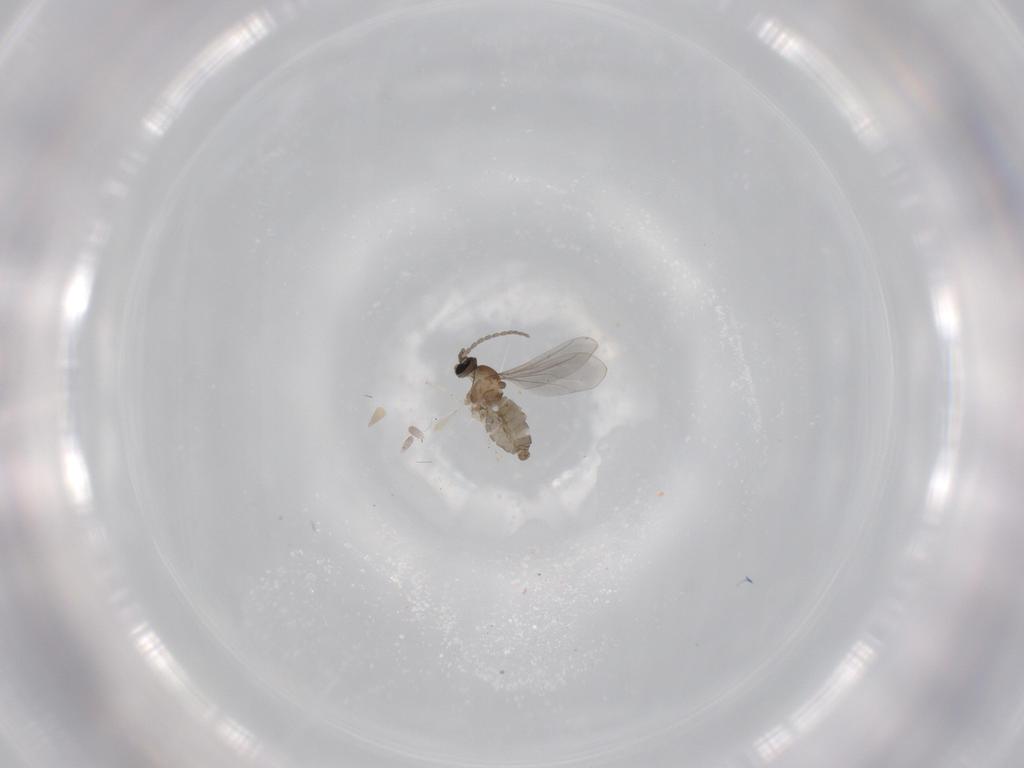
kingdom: Animalia
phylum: Arthropoda
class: Insecta
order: Diptera
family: Cecidomyiidae
